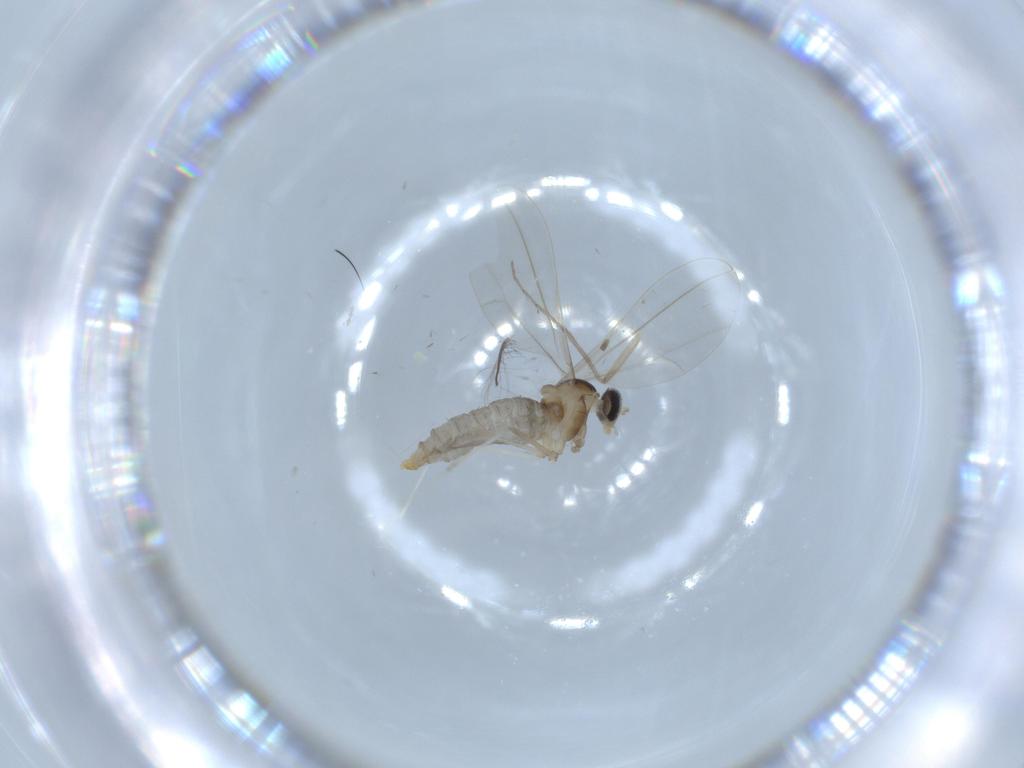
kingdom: Animalia
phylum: Arthropoda
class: Insecta
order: Diptera
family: Cecidomyiidae
